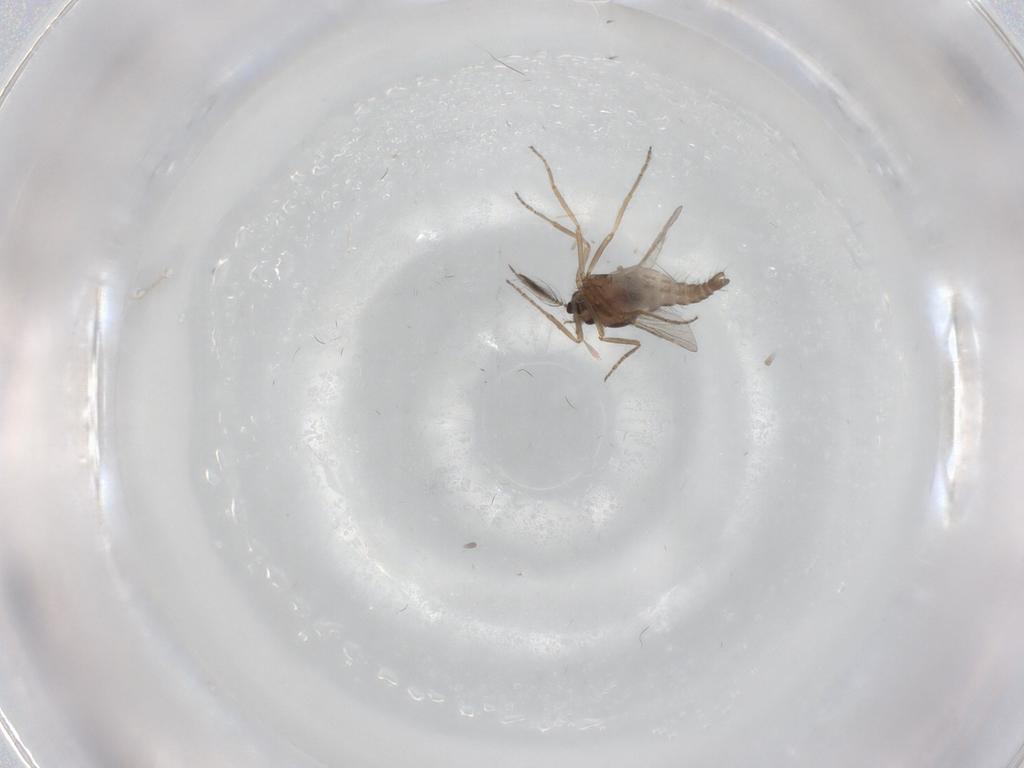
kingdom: Animalia
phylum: Arthropoda
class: Insecta
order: Diptera
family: Ceratopogonidae
